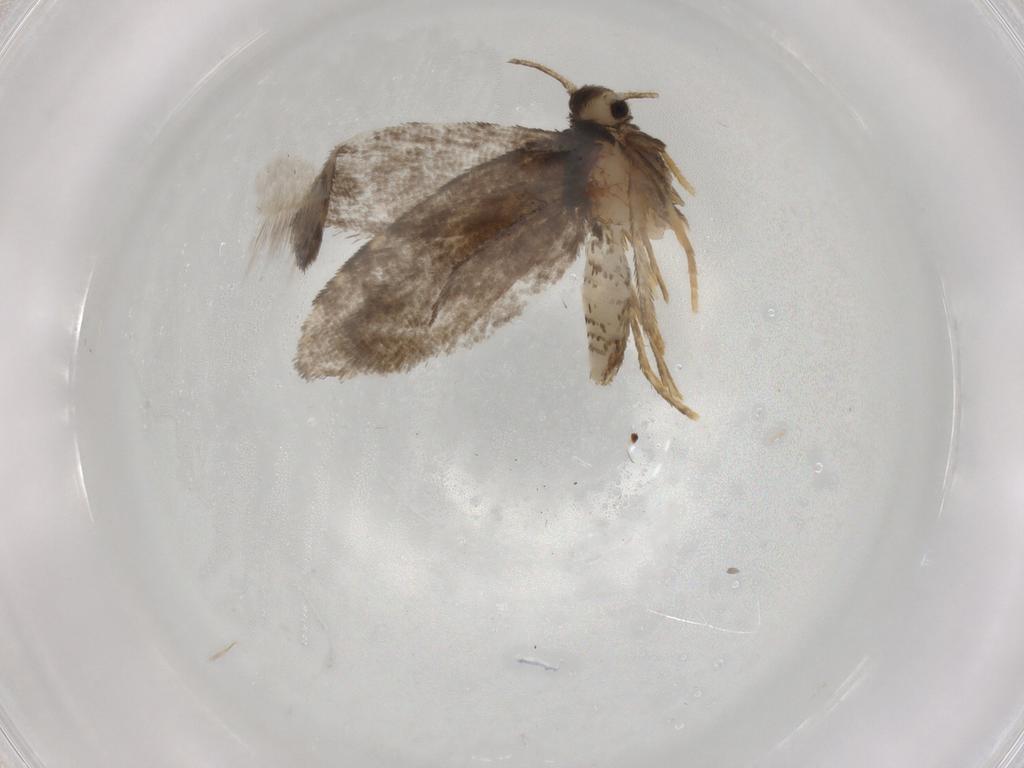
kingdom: Animalia
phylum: Arthropoda
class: Insecta
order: Lepidoptera
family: Psychidae
